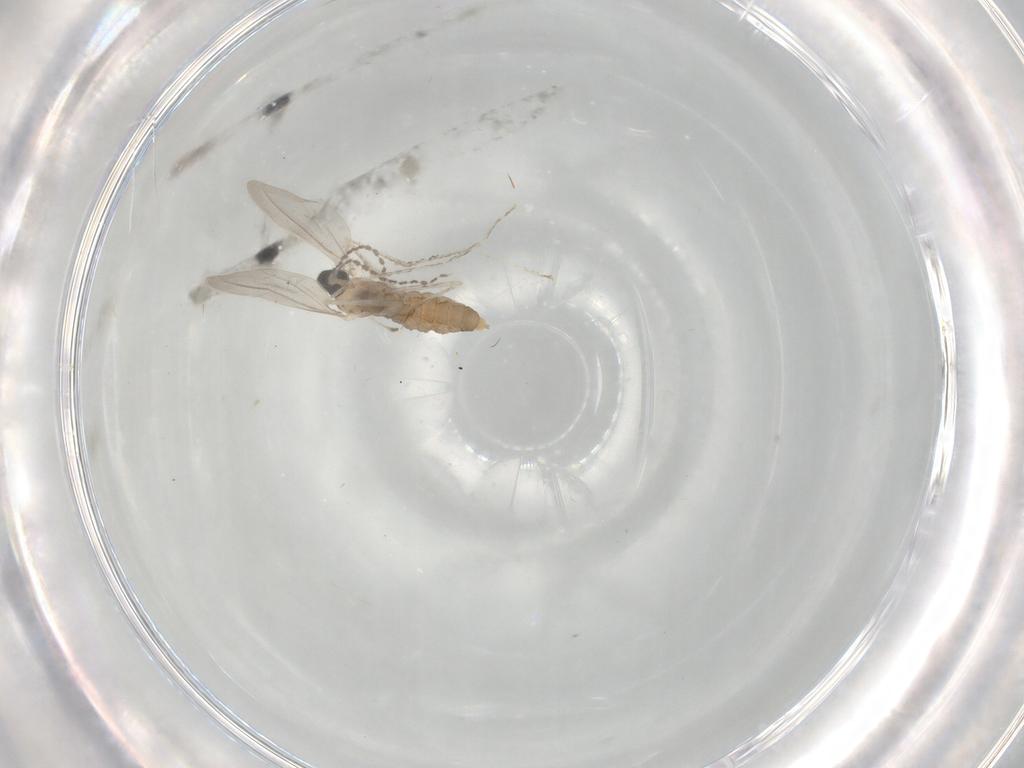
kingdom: Animalia
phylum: Arthropoda
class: Insecta
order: Diptera
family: Cecidomyiidae
